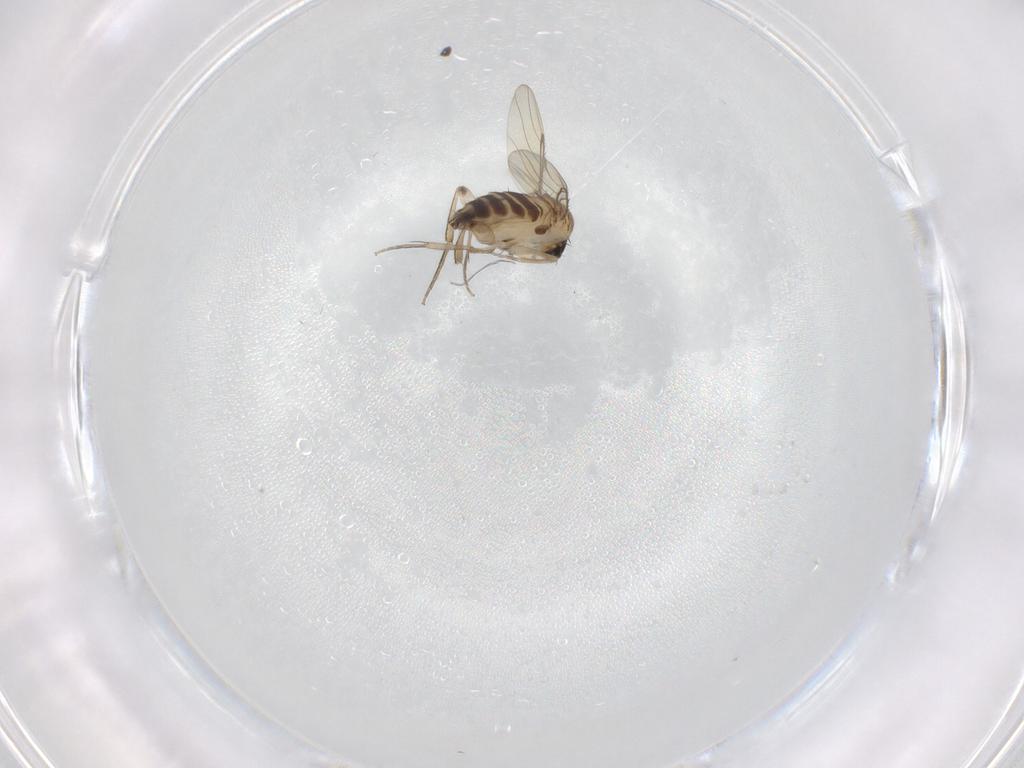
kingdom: Animalia
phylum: Arthropoda
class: Insecta
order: Diptera
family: Phoridae
